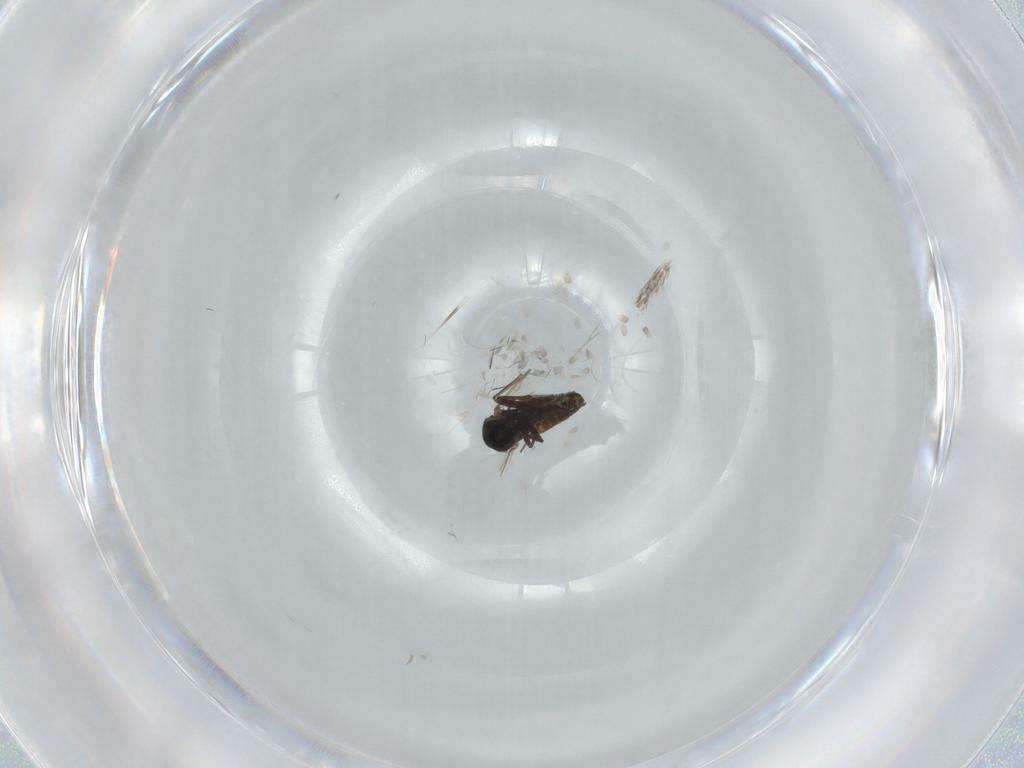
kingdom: Animalia
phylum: Arthropoda
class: Insecta
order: Diptera
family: Ceratopogonidae
